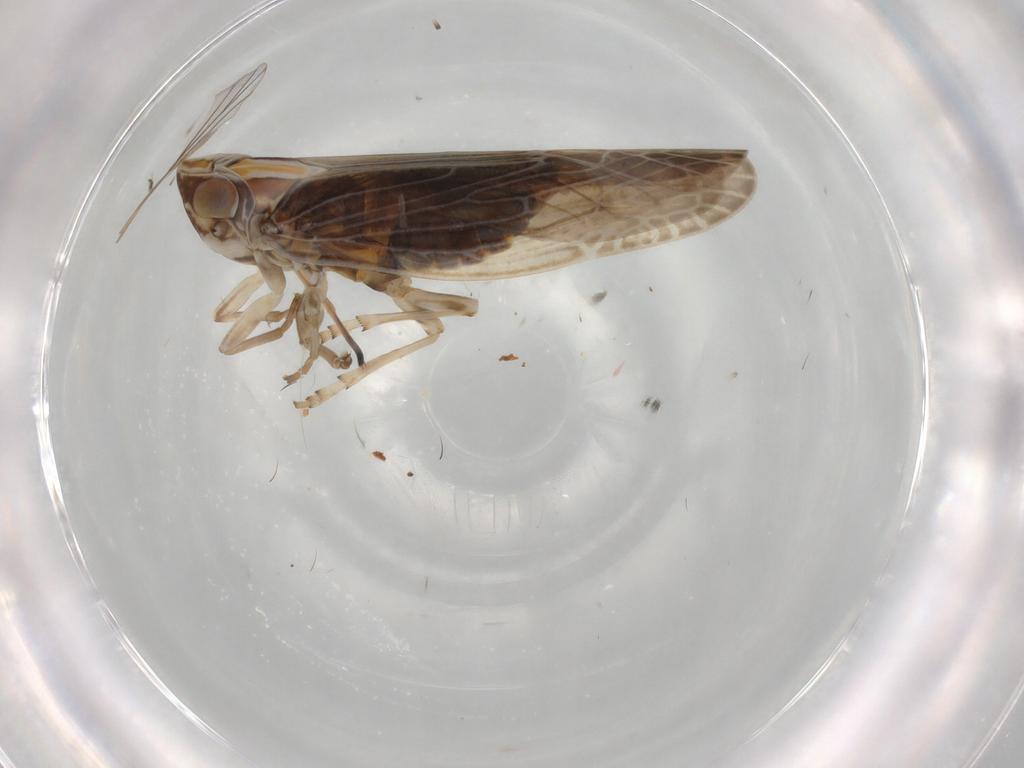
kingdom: Animalia
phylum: Arthropoda
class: Insecta
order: Hemiptera
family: Achilidae
